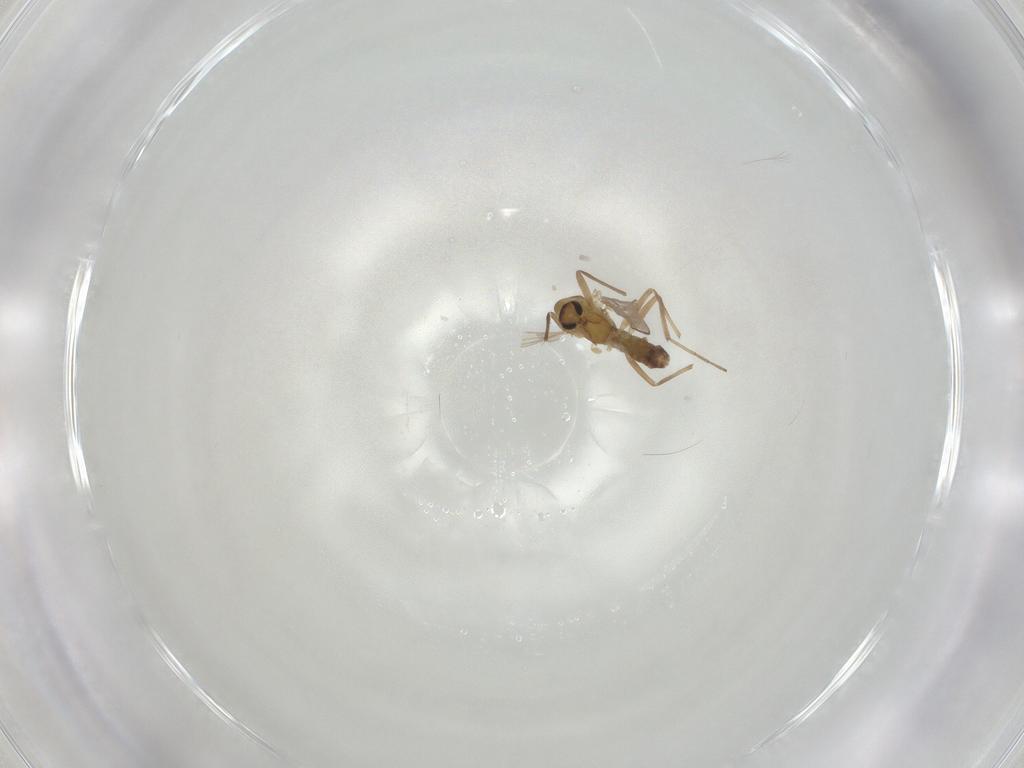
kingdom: Animalia
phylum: Arthropoda
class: Insecta
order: Diptera
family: Chironomidae
